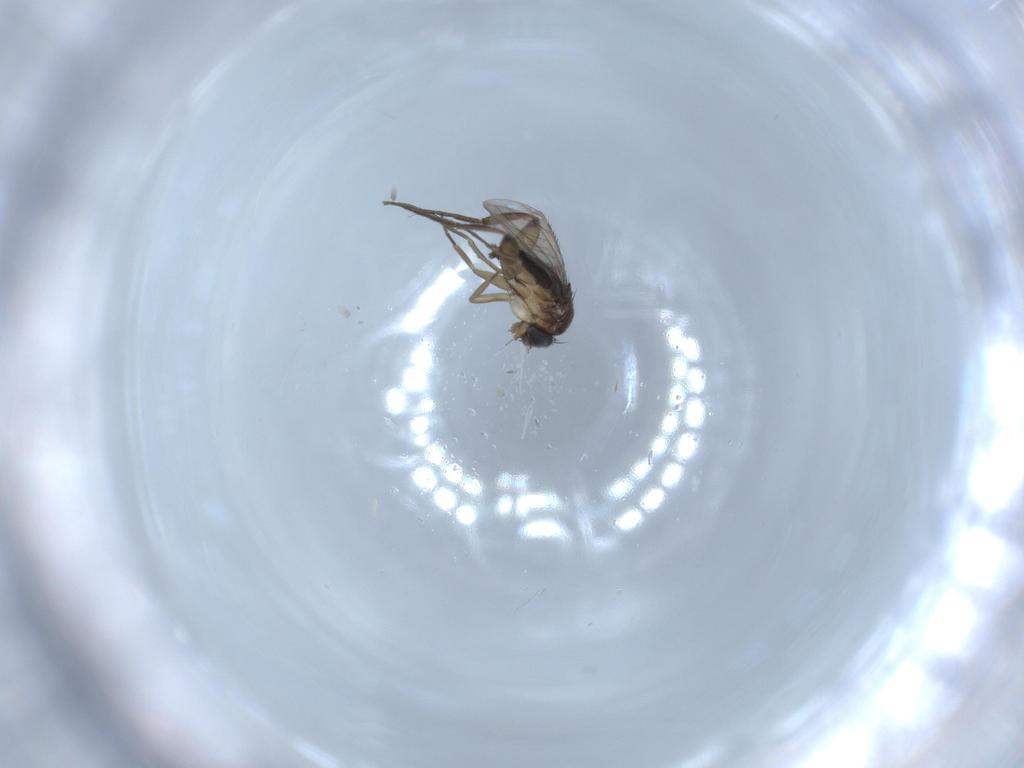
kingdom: Animalia
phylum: Arthropoda
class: Insecta
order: Diptera
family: Phoridae
